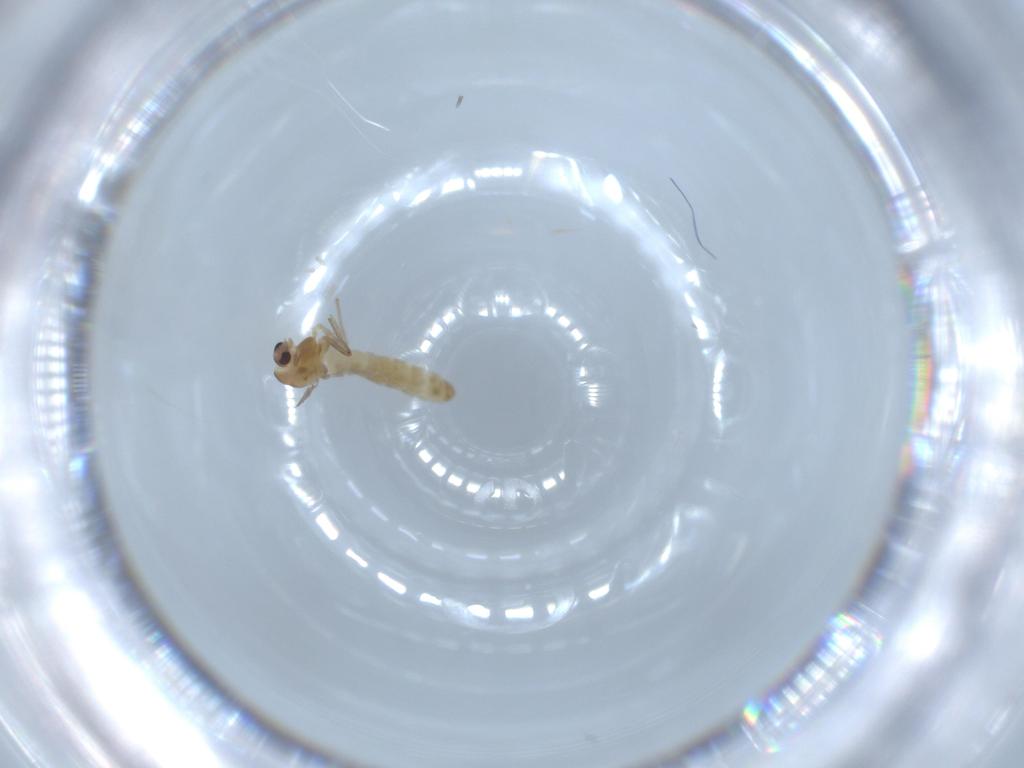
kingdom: Animalia
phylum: Arthropoda
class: Insecta
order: Diptera
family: Chironomidae
